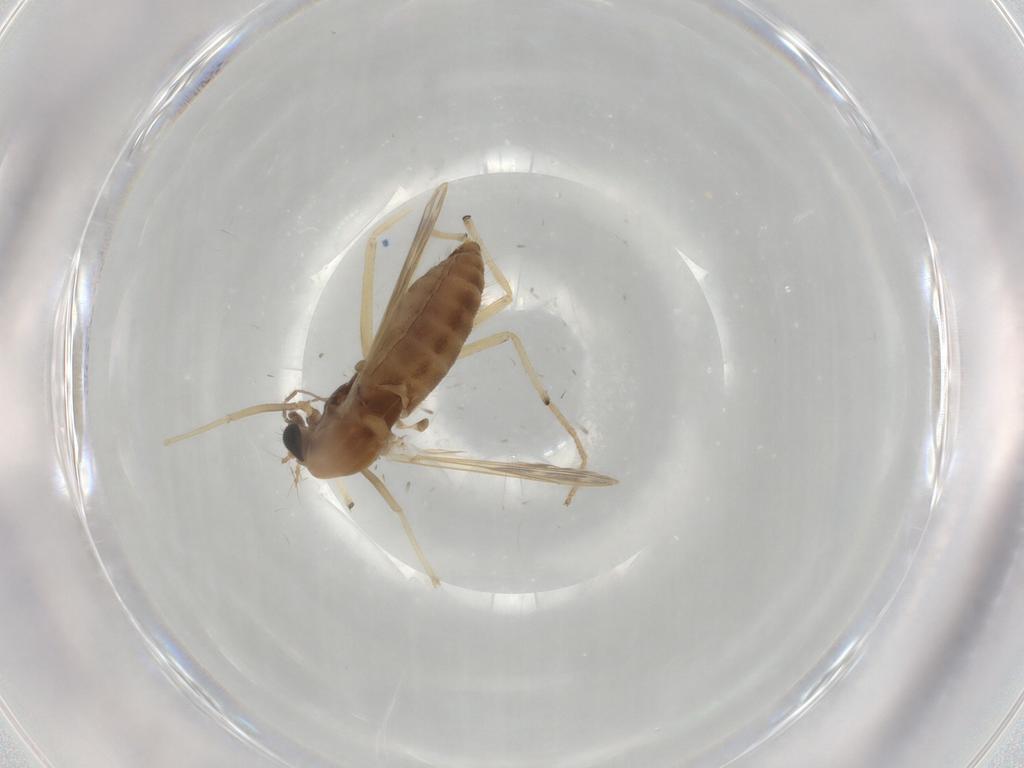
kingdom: Animalia
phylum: Arthropoda
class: Insecta
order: Diptera
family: Chironomidae
